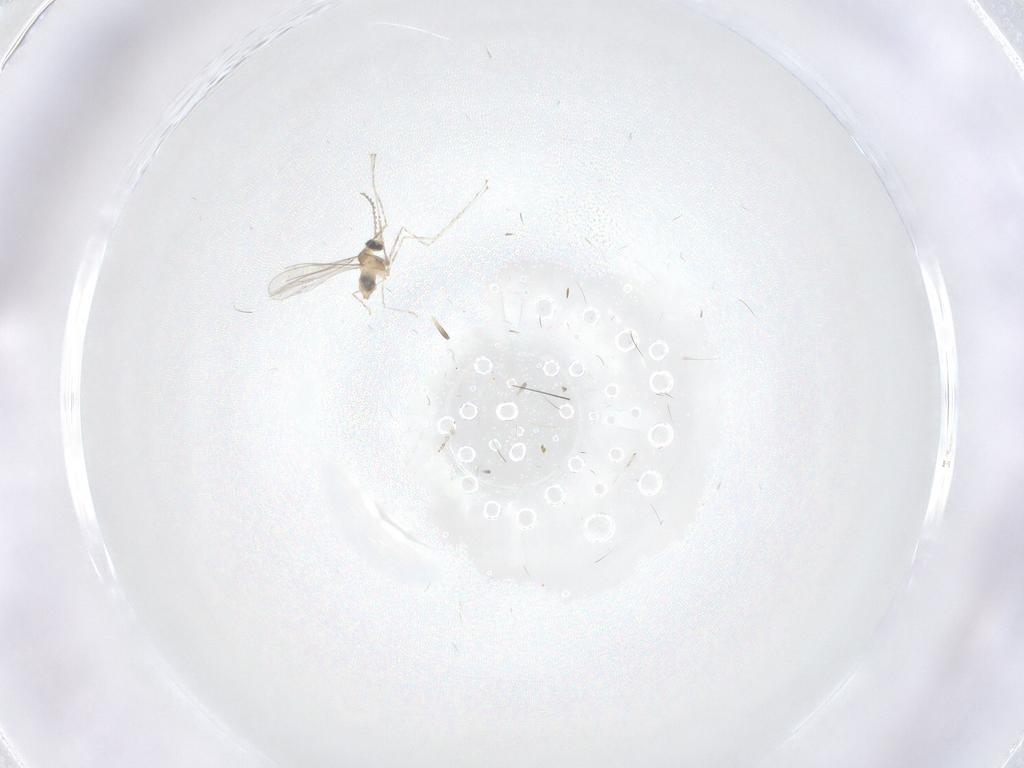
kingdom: Animalia
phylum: Arthropoda
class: Insecta
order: Diptera
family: Cecidomyiidae
